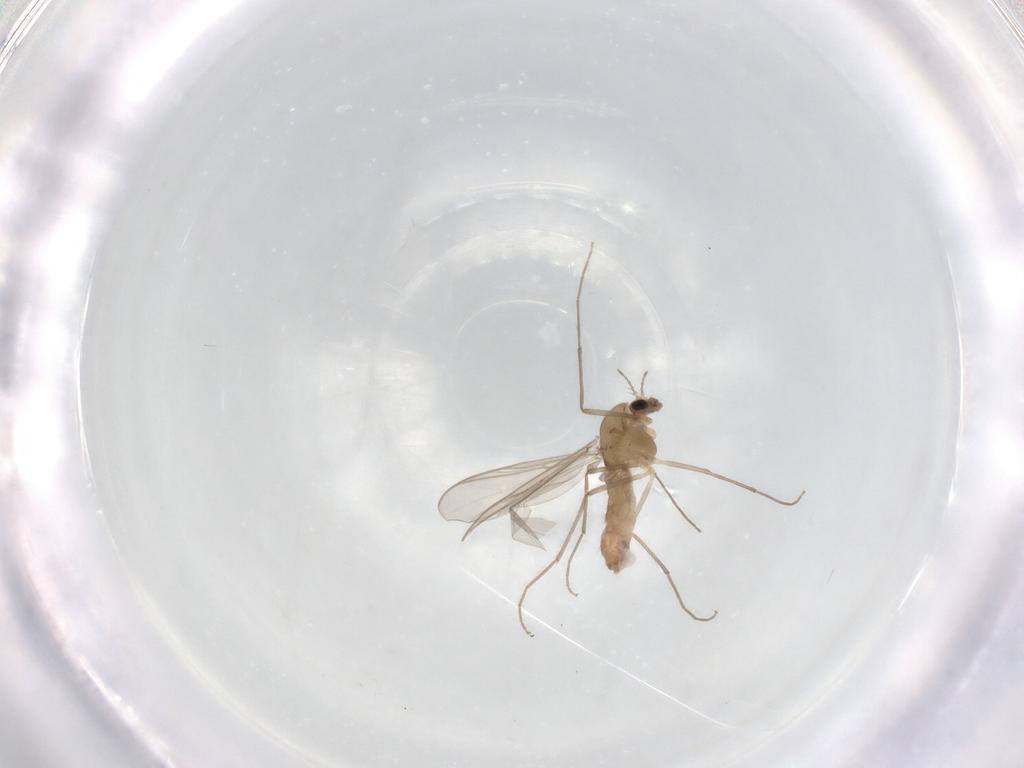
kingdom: Animalia
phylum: Arthropoda
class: Insecta
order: Diptera
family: Chironomidae
